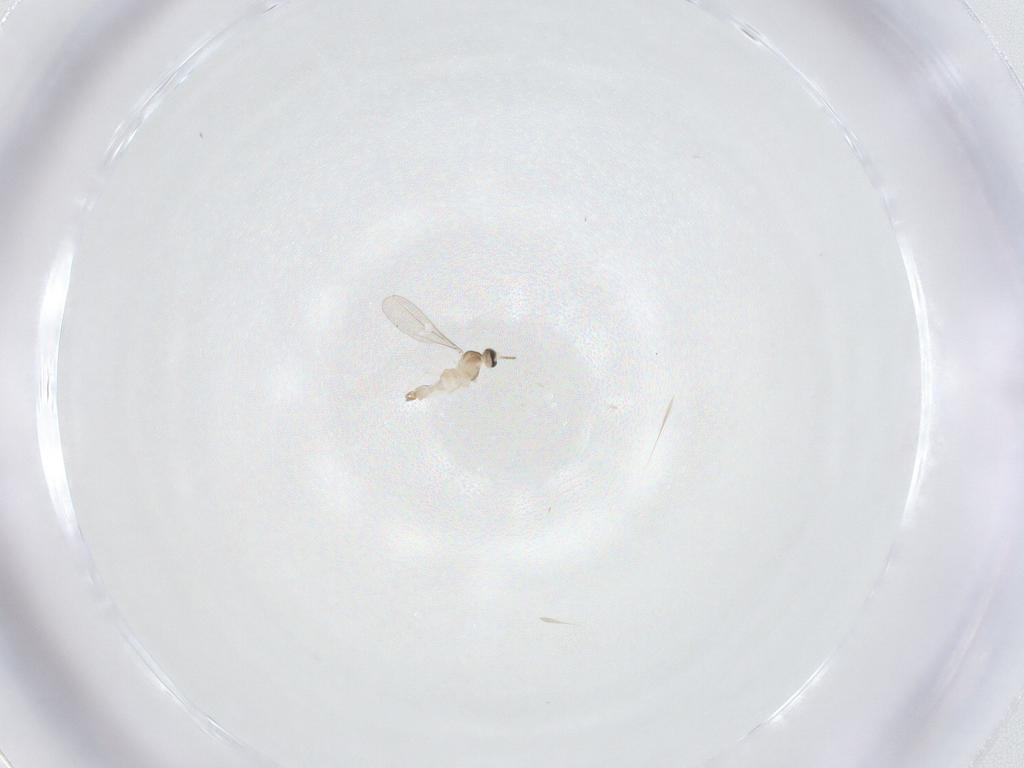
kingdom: Animalia
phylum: Arthropoda
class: Insecta
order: Diptera
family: Cecidomyiidae
